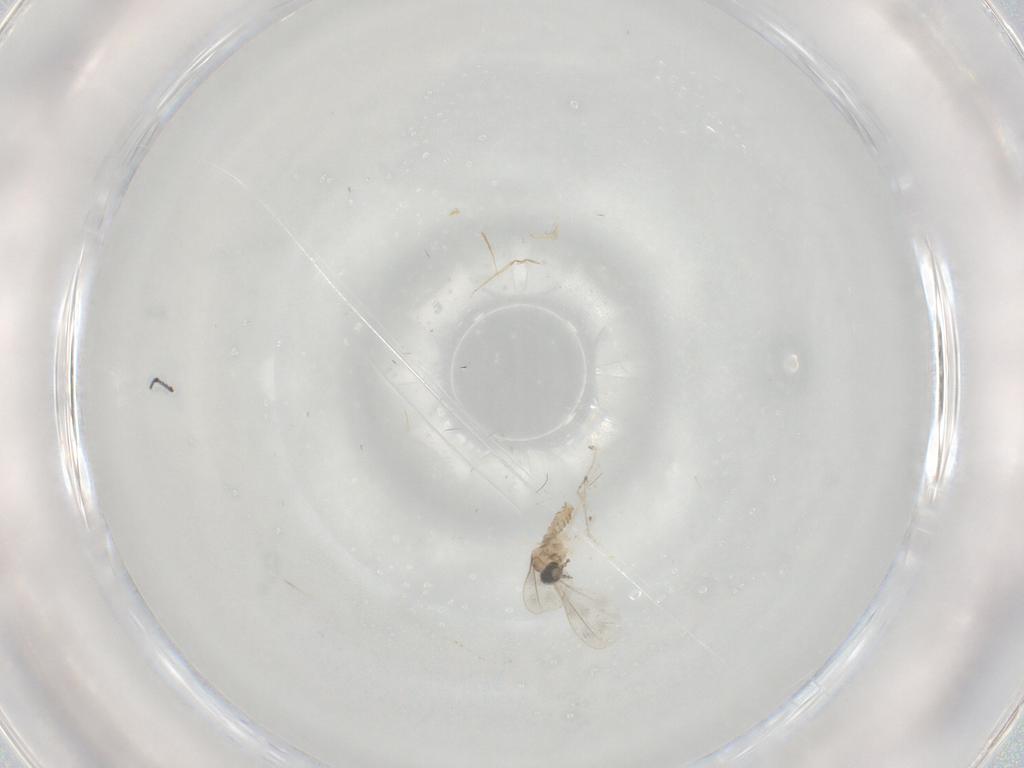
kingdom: Animalia
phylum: Arthropoda
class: Insecta
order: Diptera
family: Cecidomyiidae
